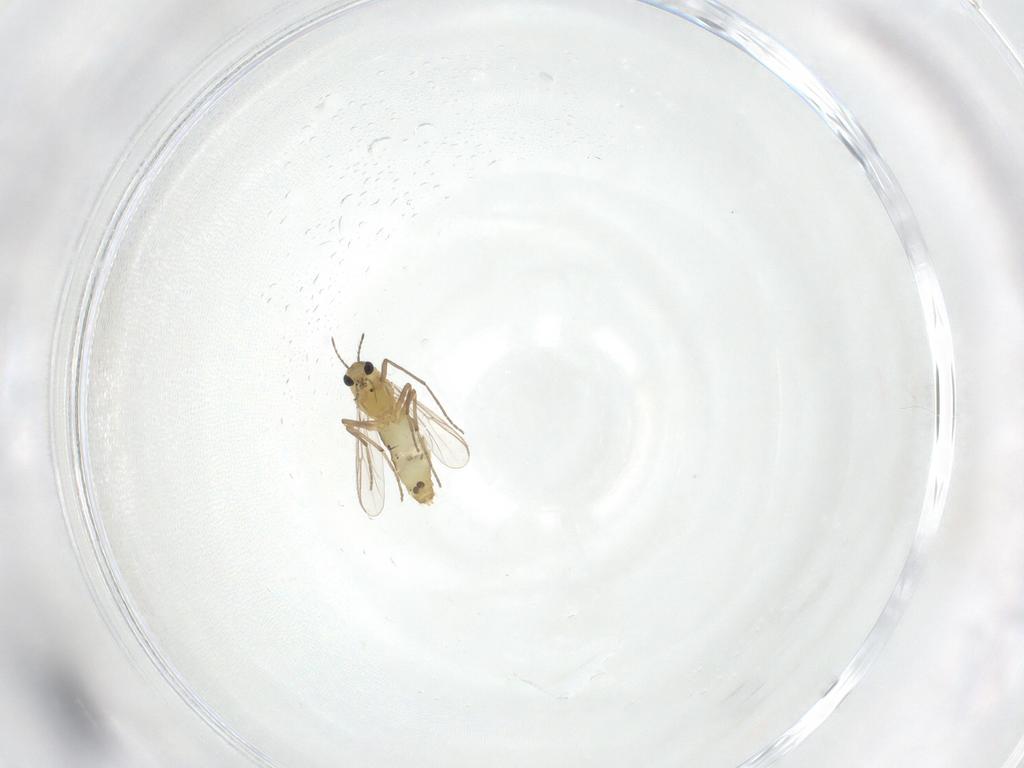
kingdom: Animalia
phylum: Arthropoda
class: Insecta
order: Diptera
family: Chironomidae
